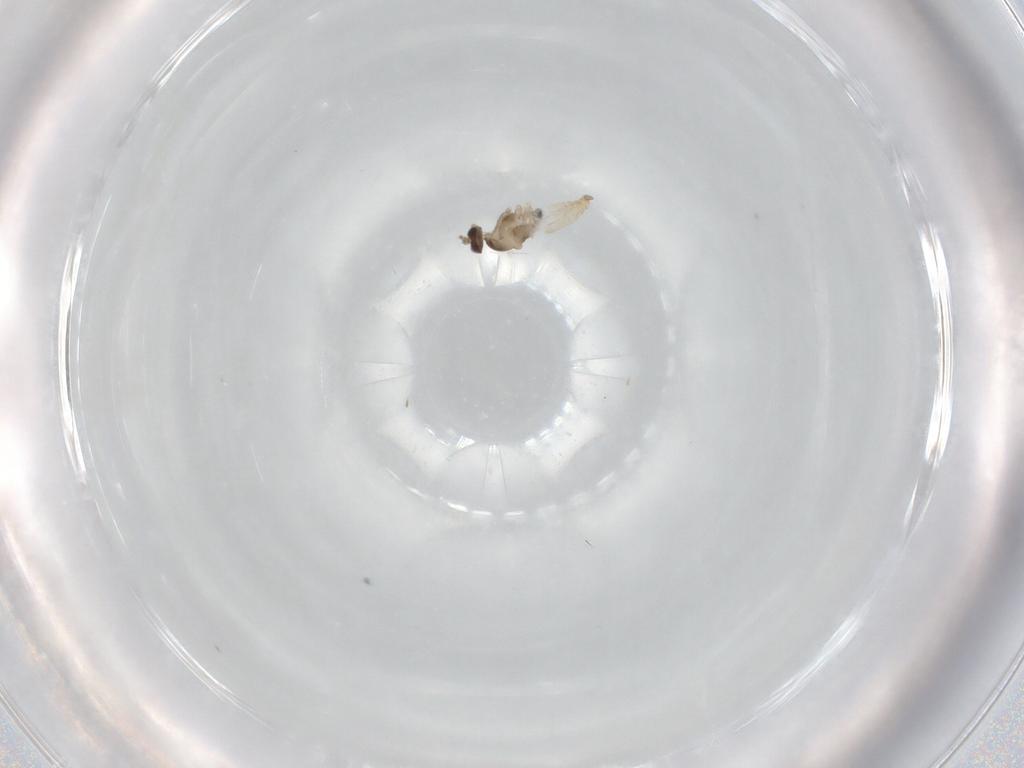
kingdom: Animalia
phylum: Arthropoda
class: Insecta
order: Diptera
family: Cecidomyiidae
